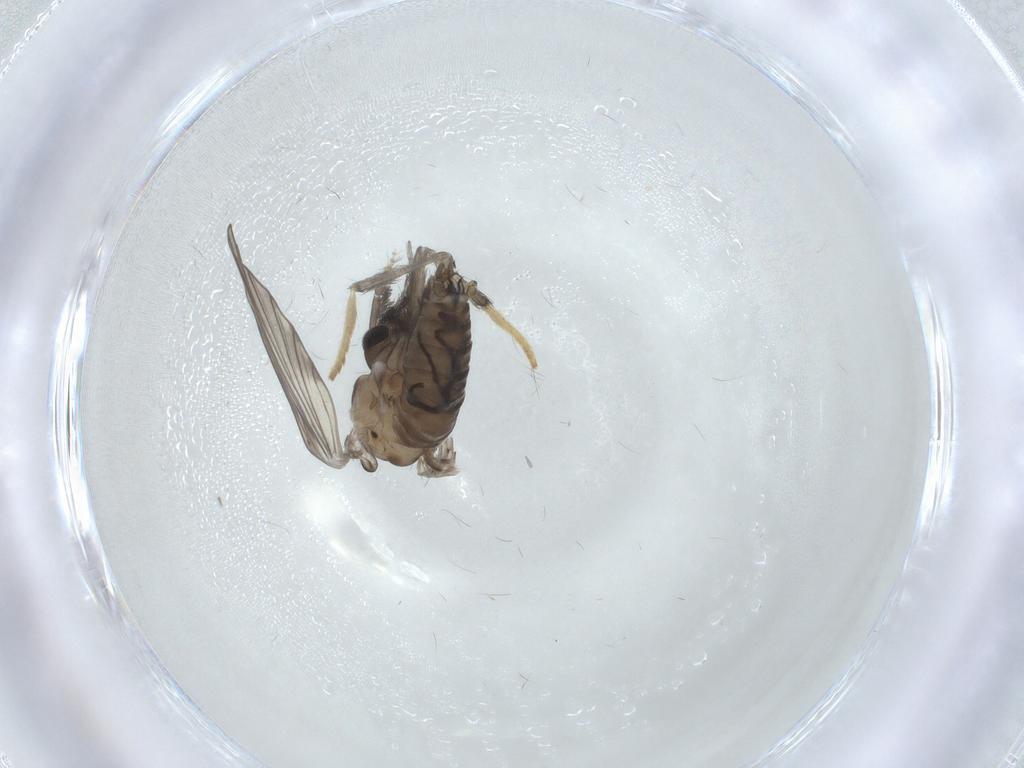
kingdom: Animalia
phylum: Arthropoda
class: Insecta
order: Diptera
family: Psychodidae
